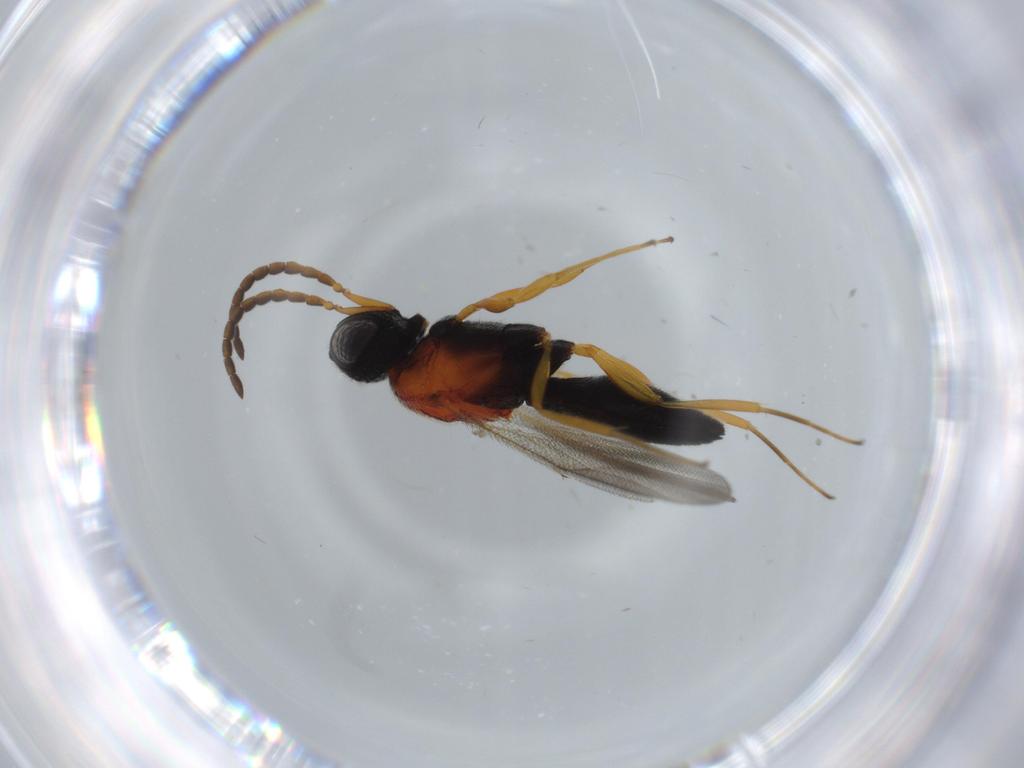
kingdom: Animalia
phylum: Arthropoda
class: Insecta
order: Hymenoptera
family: Scelionidae
